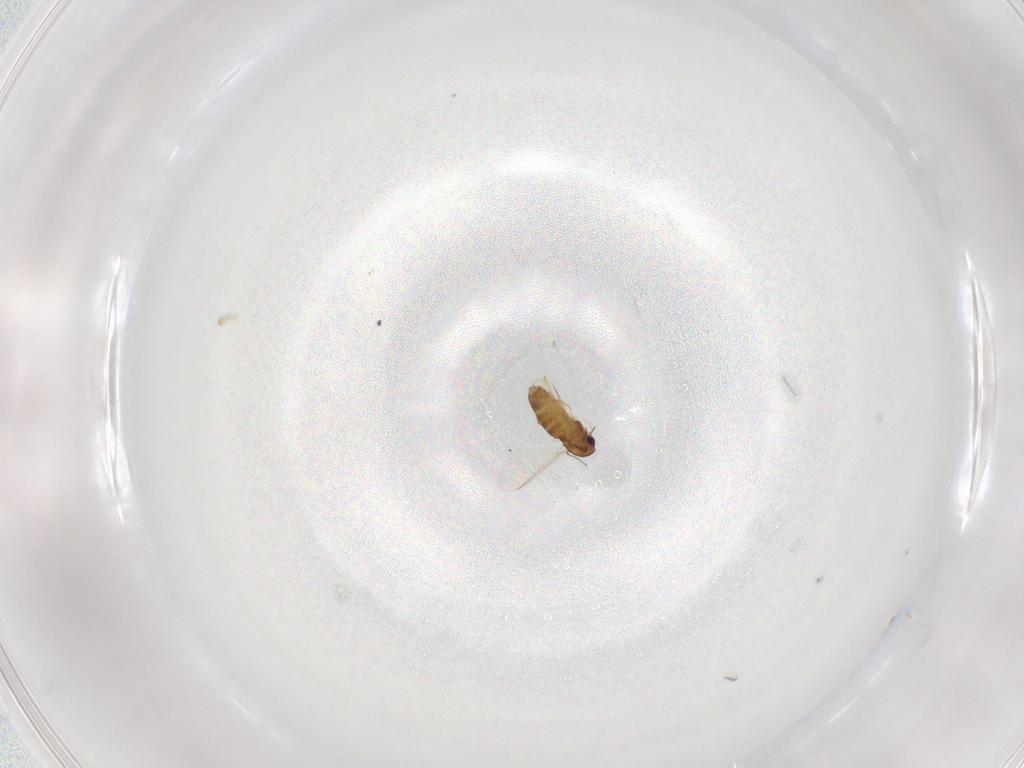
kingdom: Animalia
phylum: Arthropoda
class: Insecta
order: Diptera
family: Chironomidae
